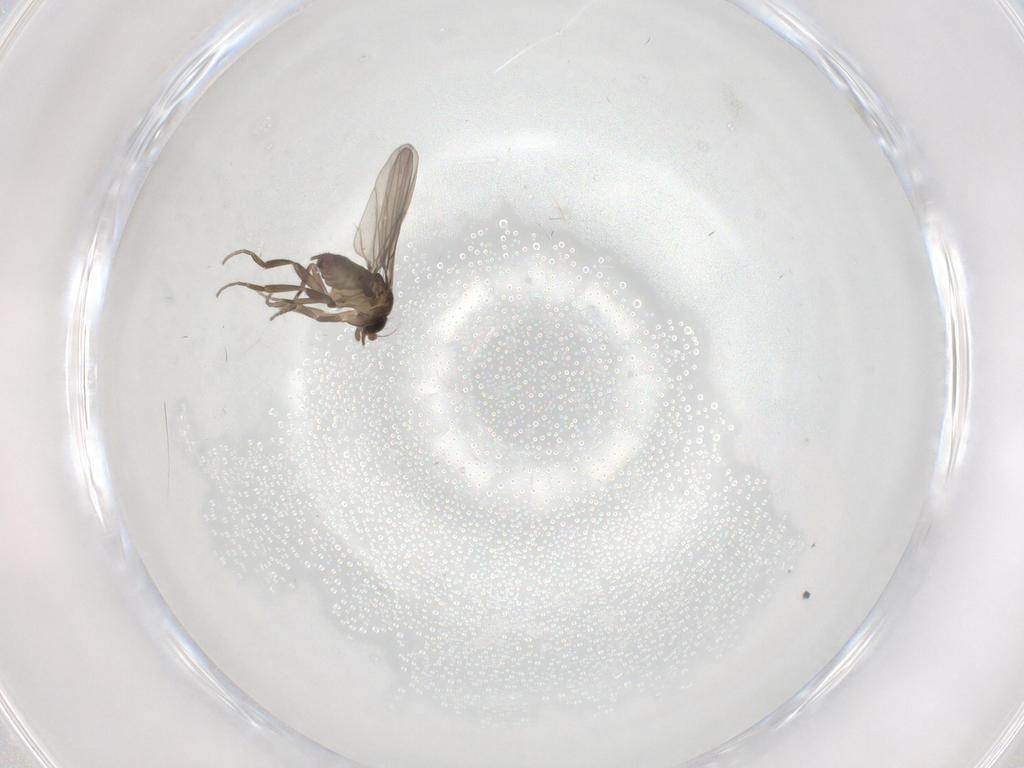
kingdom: Animalia
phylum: Arthropoda
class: Insecta
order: Diptera
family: Phoridae
